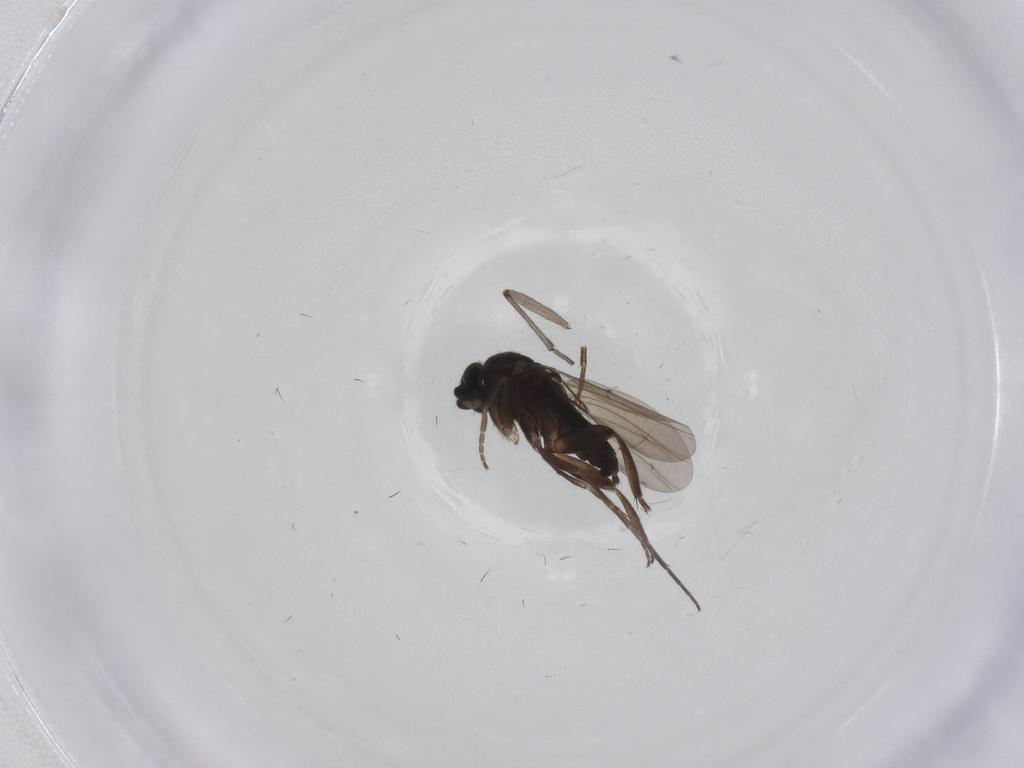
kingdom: Animalia
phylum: Arthropoda
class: Insecta
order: Diptera
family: Phoridae
